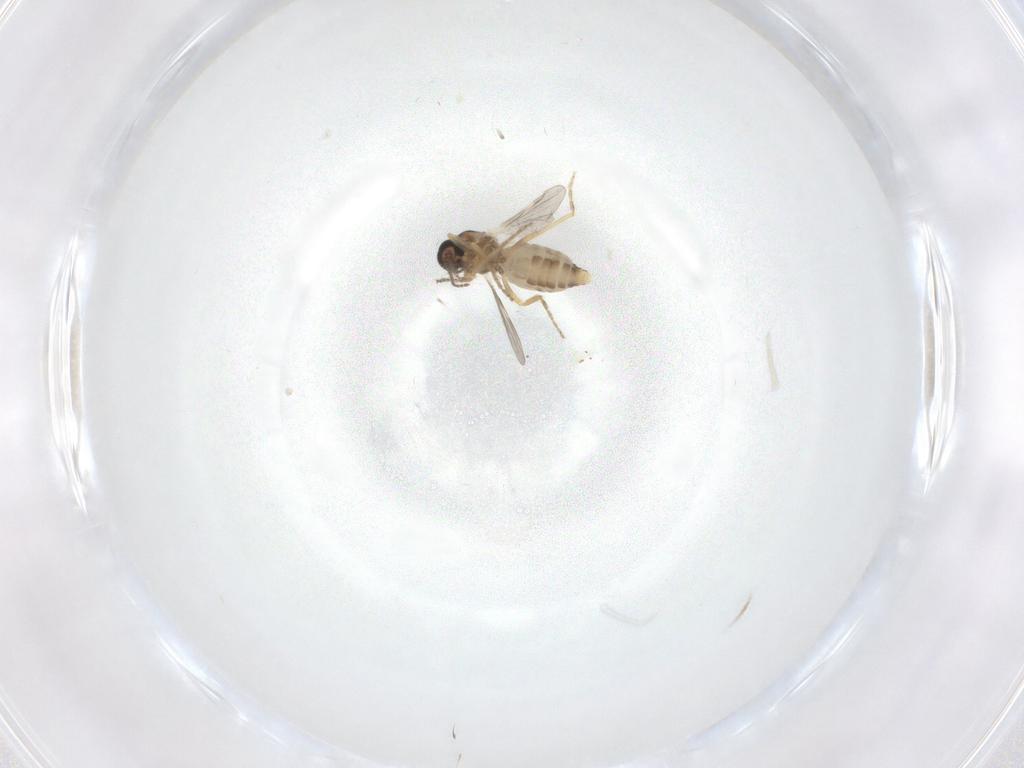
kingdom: Animalia
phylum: Arthropoda
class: Insecta
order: Diptera
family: Ceratopogonidae
